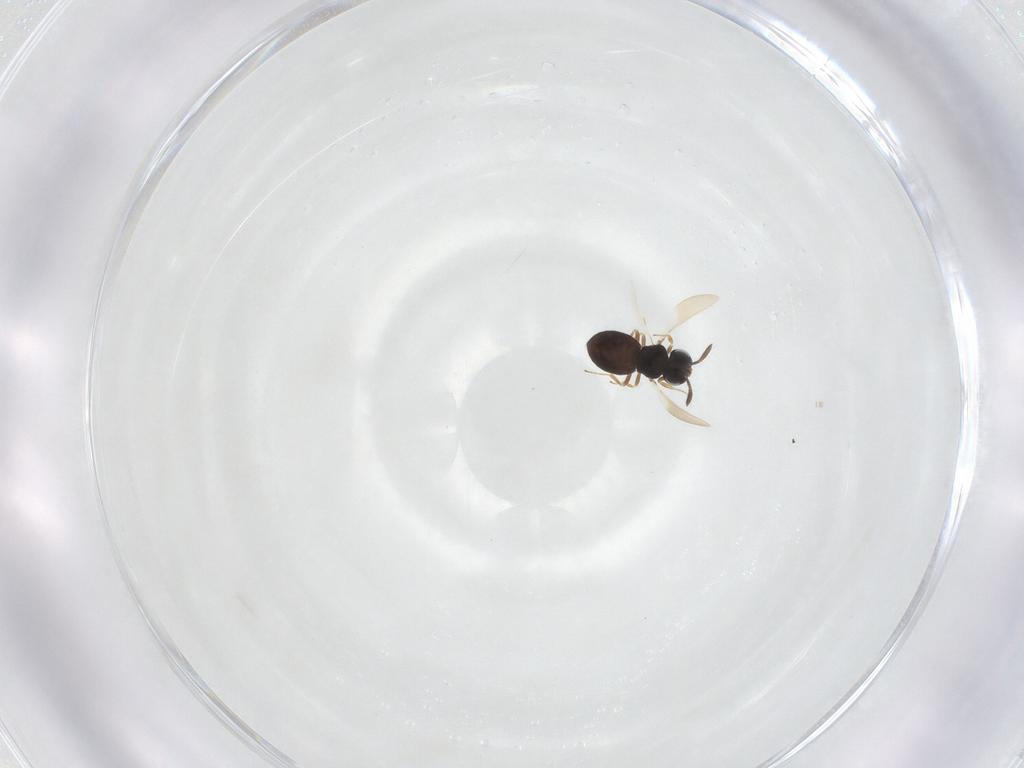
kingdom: Animalia
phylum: Arthropoda
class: Insecta
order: Hymenoptera
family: Scelionidae
